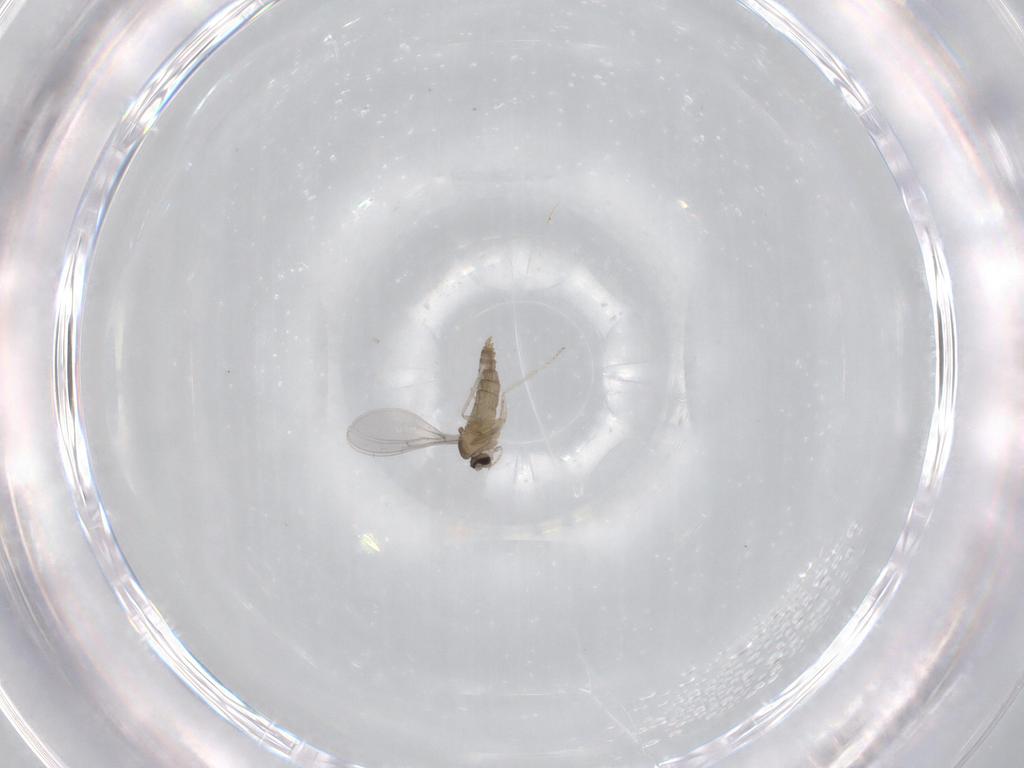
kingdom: Animalia
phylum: Arthropoda
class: Insecta
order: Diptera
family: Cecidomyiidae
